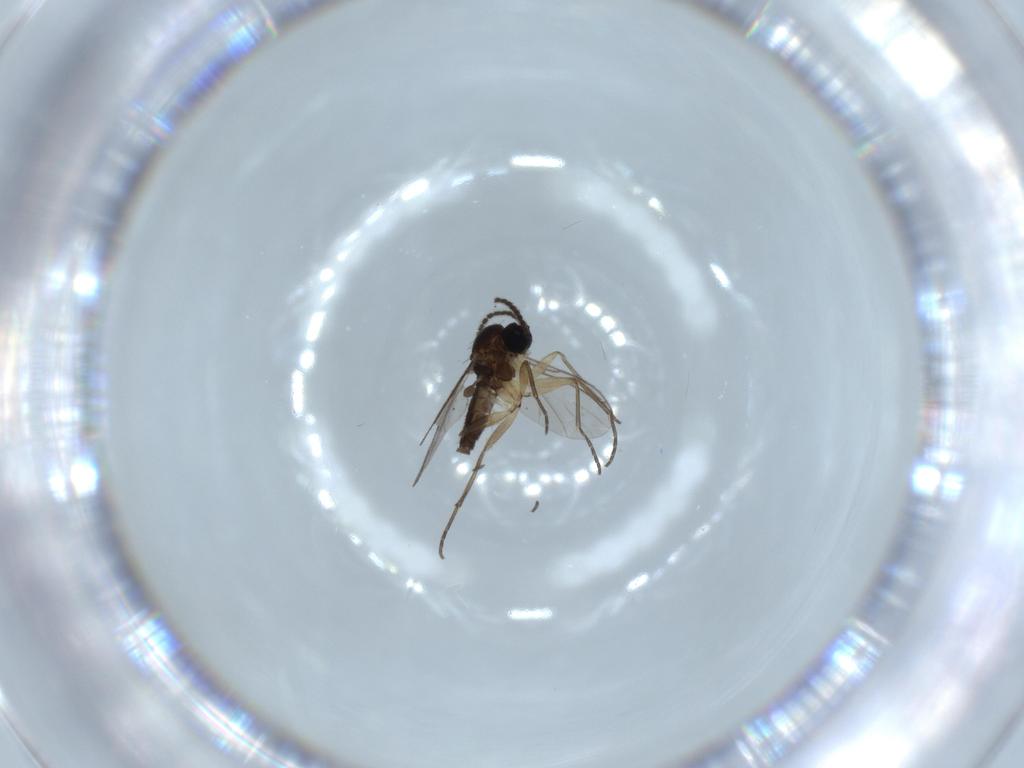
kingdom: Animalia
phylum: Arthropoda
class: Insecta
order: Diptera
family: Sciaridae
